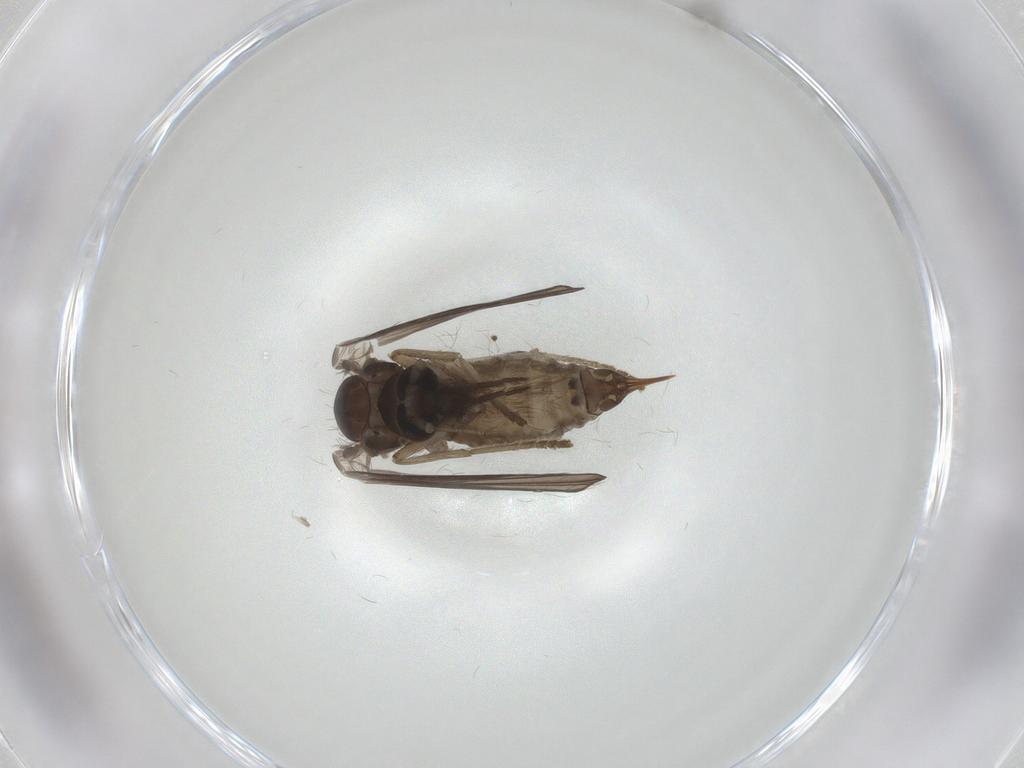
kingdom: Animalia
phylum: Arthropoda
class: Insecta
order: Diptera
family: Psychodidae
